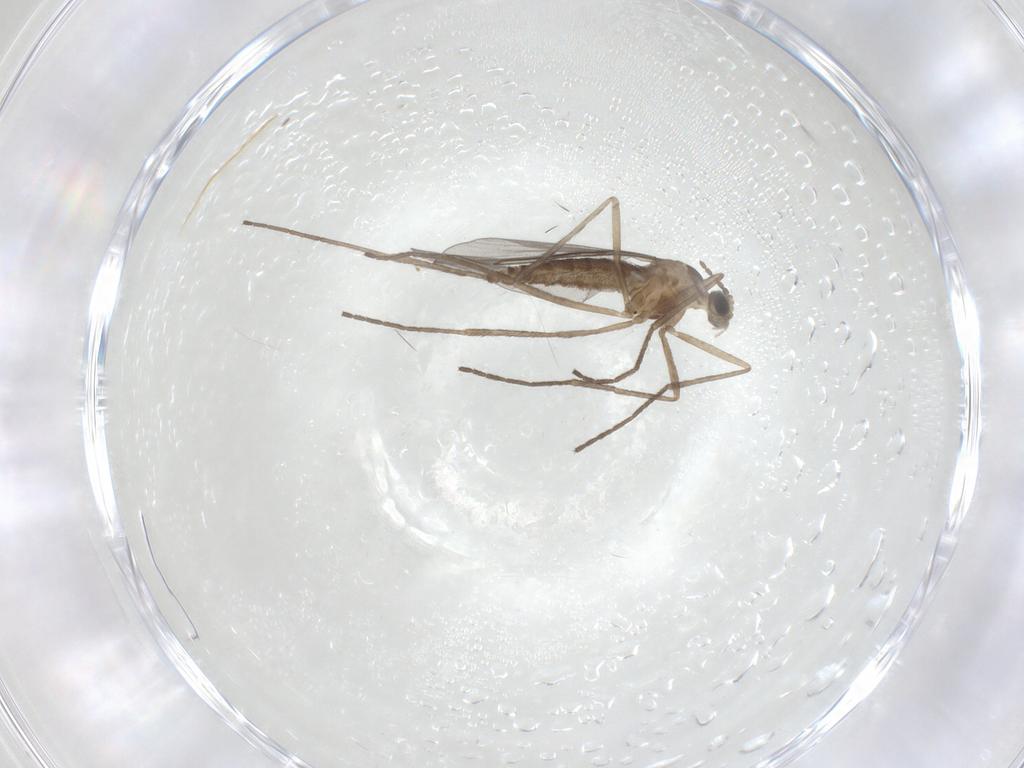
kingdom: Animalia
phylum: Arthropoda
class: Insecta
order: Diptera
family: Cecidomyiidae
